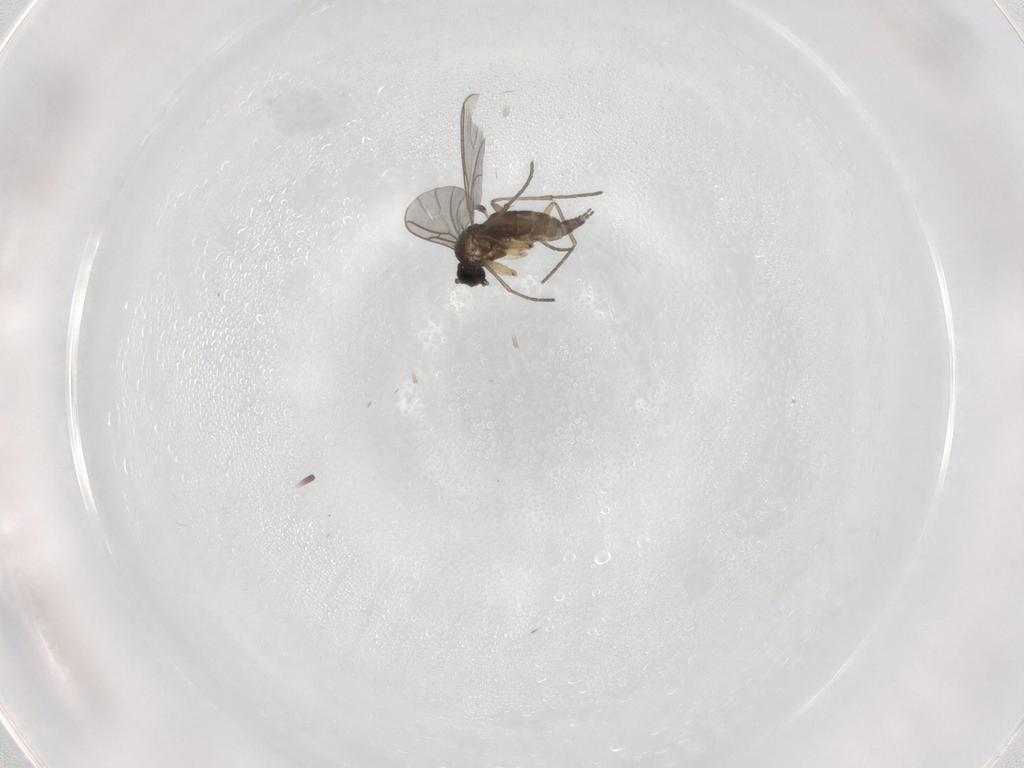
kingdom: Animalia
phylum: Arthropoda
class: Insecta
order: Diptera
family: Sciaridae
